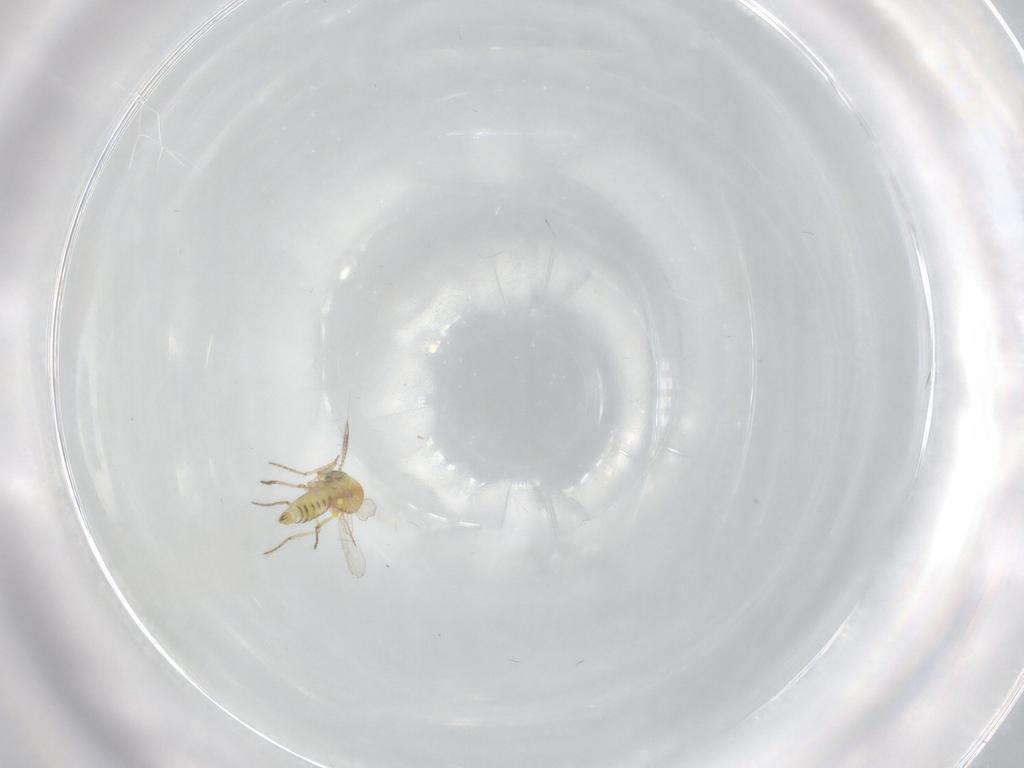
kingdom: Animalia
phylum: Arthropoda
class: Insecta
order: Diptera
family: Ceratopogonidae
